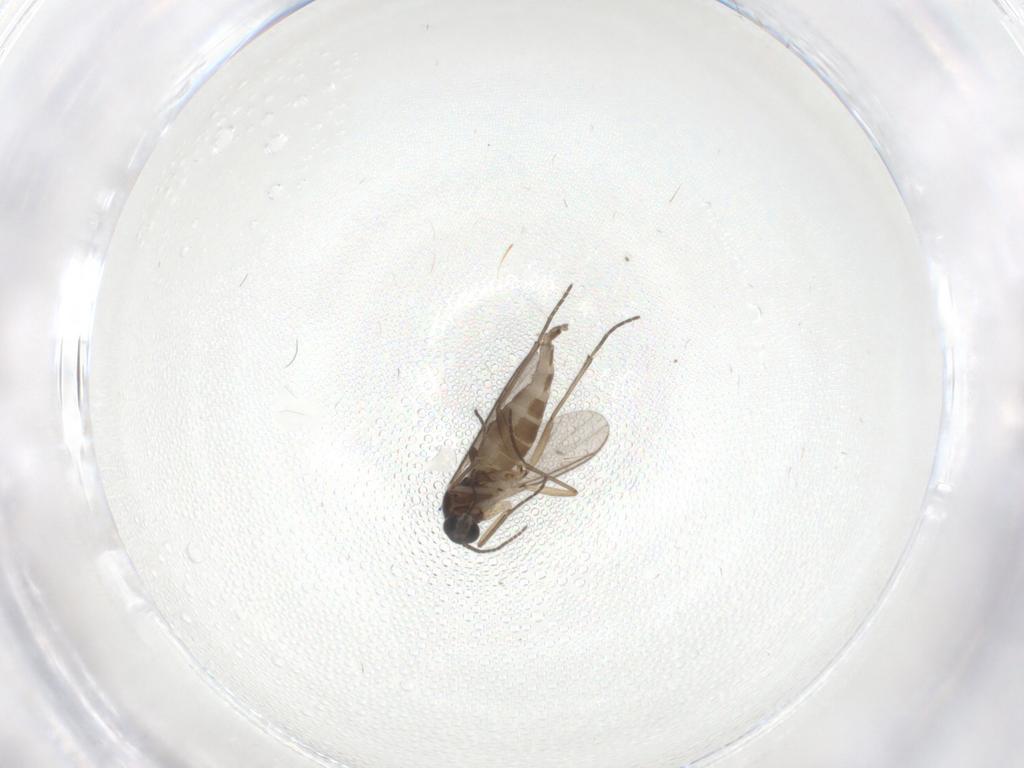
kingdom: Animalia
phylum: Arthropoda
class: Insecta
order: Diptera
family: Sciaridae
